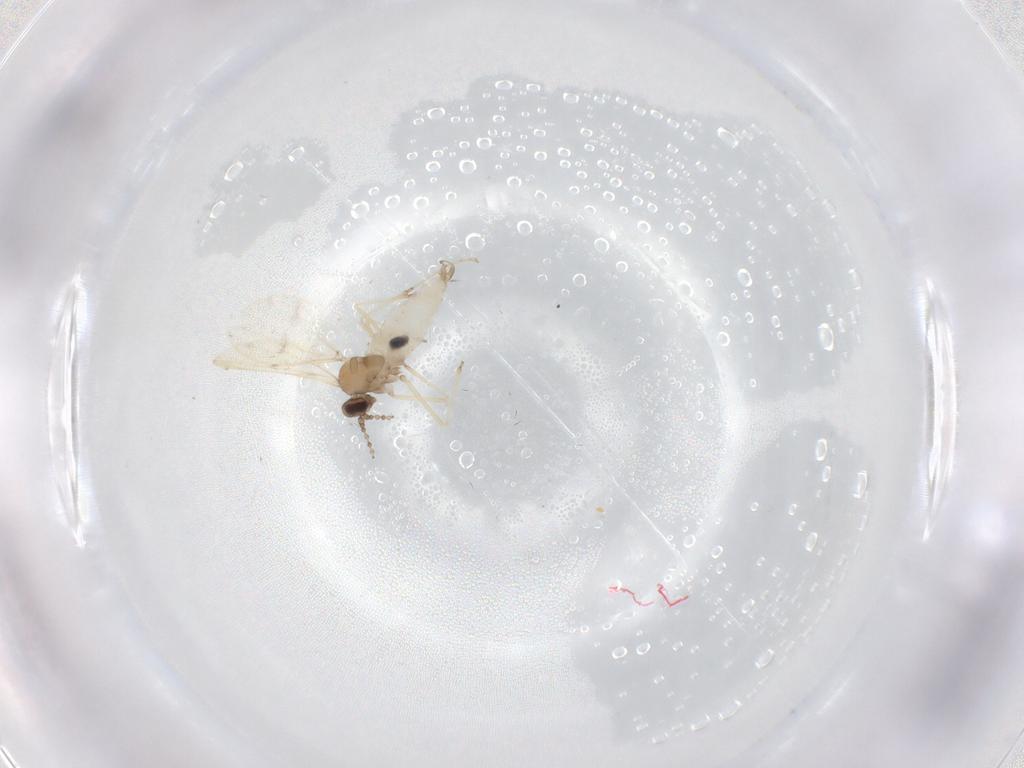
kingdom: Animalia
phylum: Arthropoda
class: Insecta
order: Diptera
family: Cecidomyiidae
